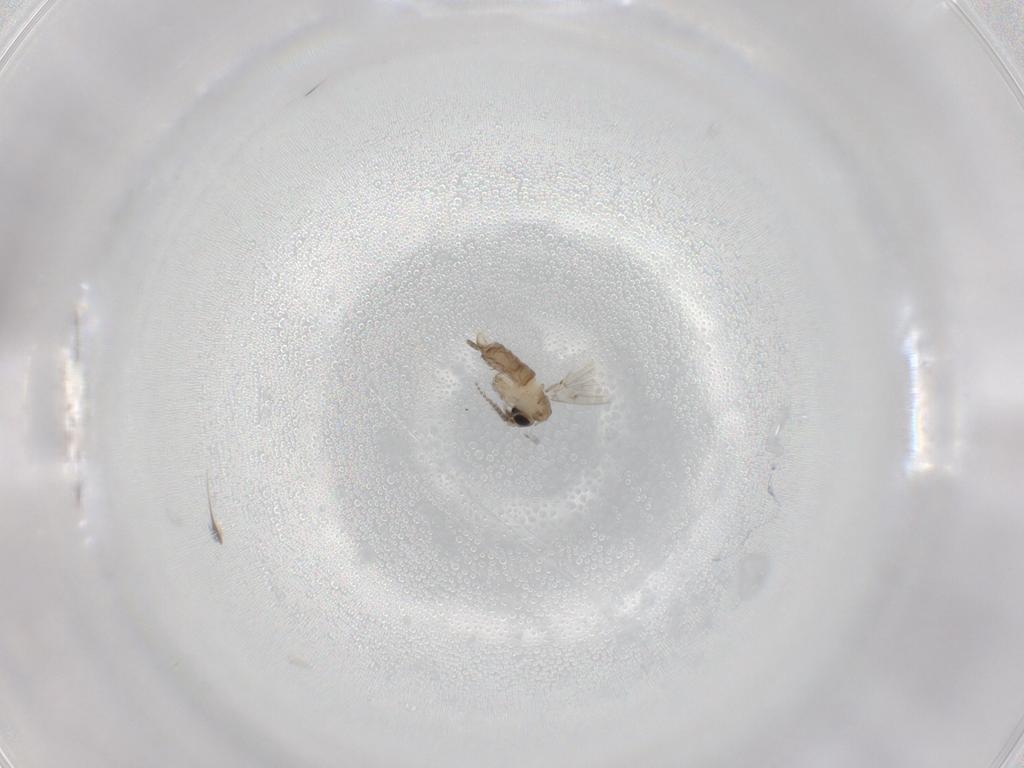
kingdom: Animalia
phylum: Arthropoda
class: Insecta
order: Diptera
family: Psychodidae
